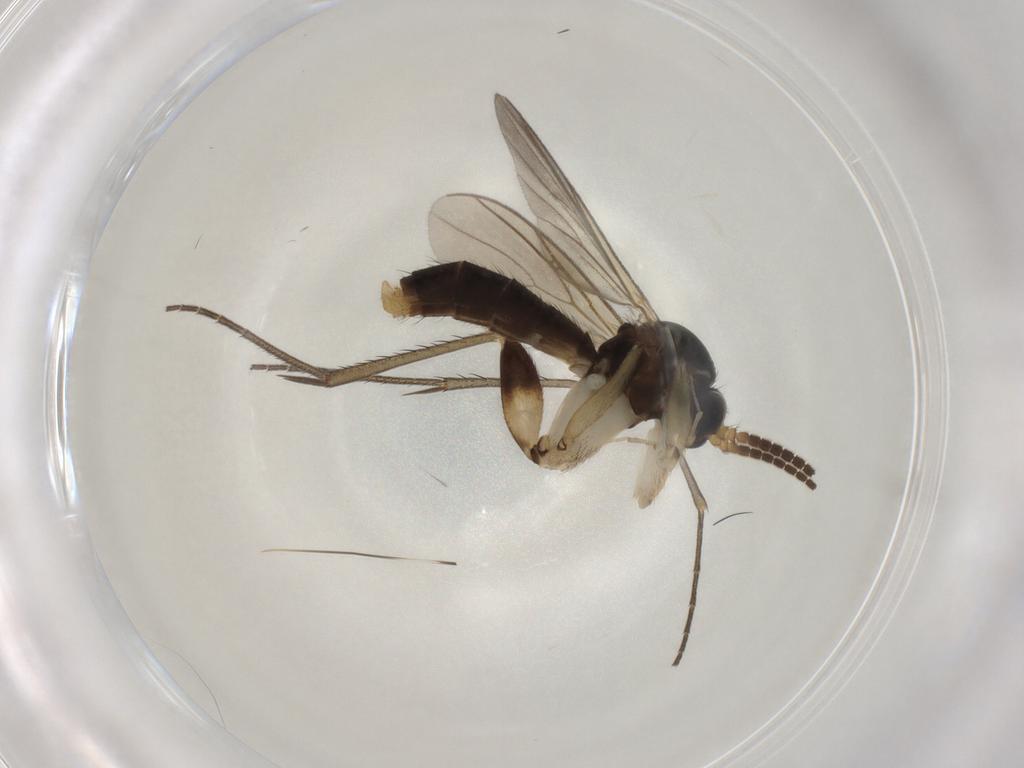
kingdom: Animalia
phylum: Arthropoda
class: Insecta
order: Diptera
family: Mycetophilidae
